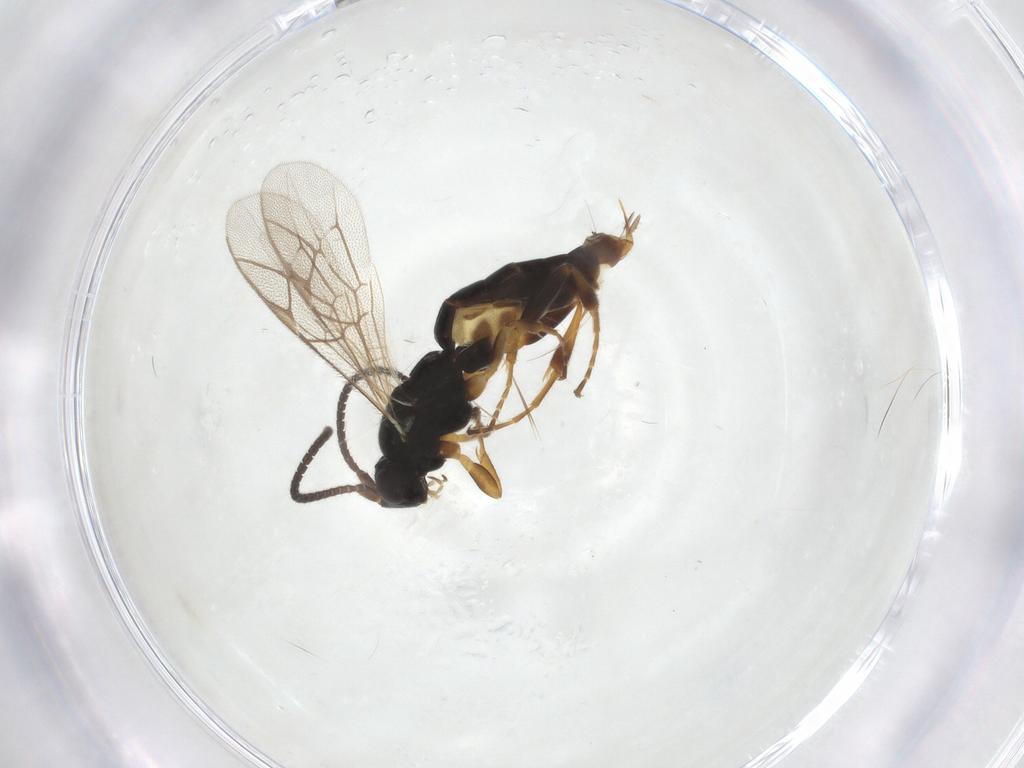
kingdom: Animalia
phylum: Arthropoda
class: Insecta
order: Hymenoptera
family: Ichneumonidae
